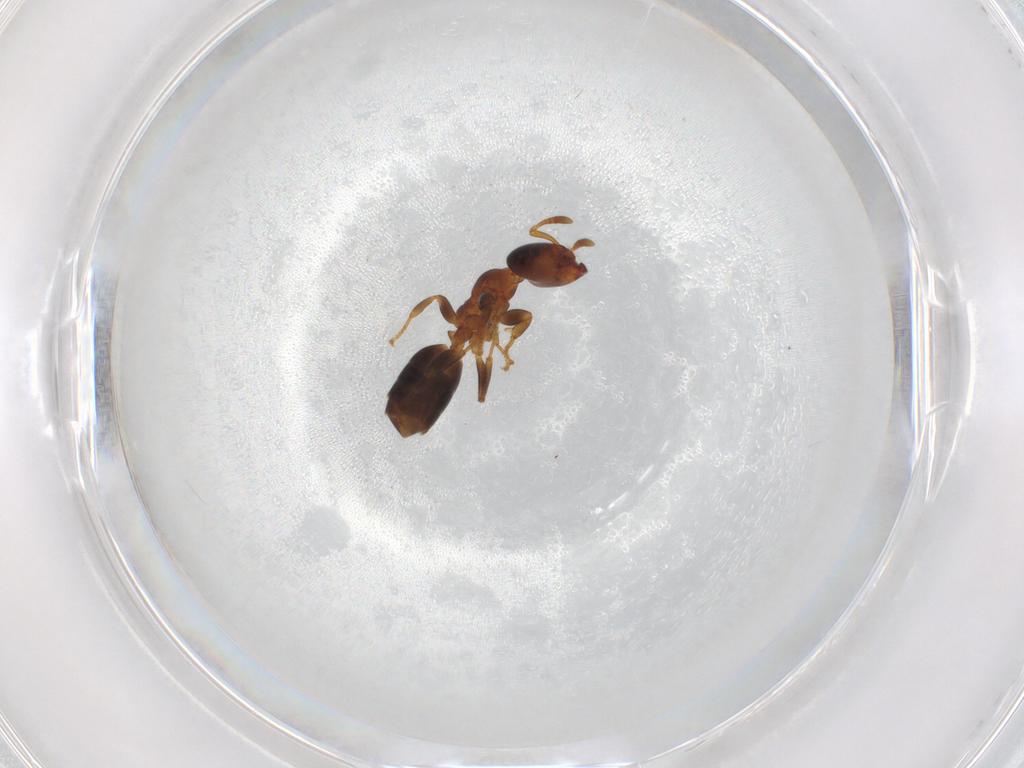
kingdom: Animalia
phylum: Arthropoda
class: Insecta
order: Hymenoptera
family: Formicidae
